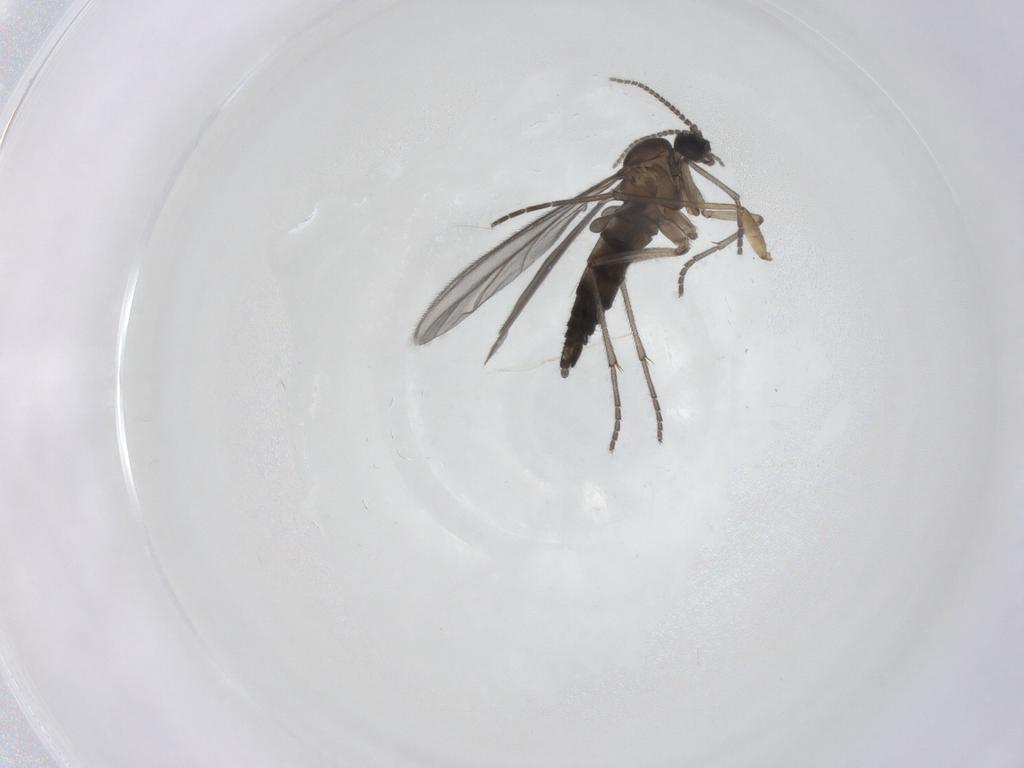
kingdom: Animalia
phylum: Arthropoda
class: Insecta
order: Diptera
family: Sciaridae
